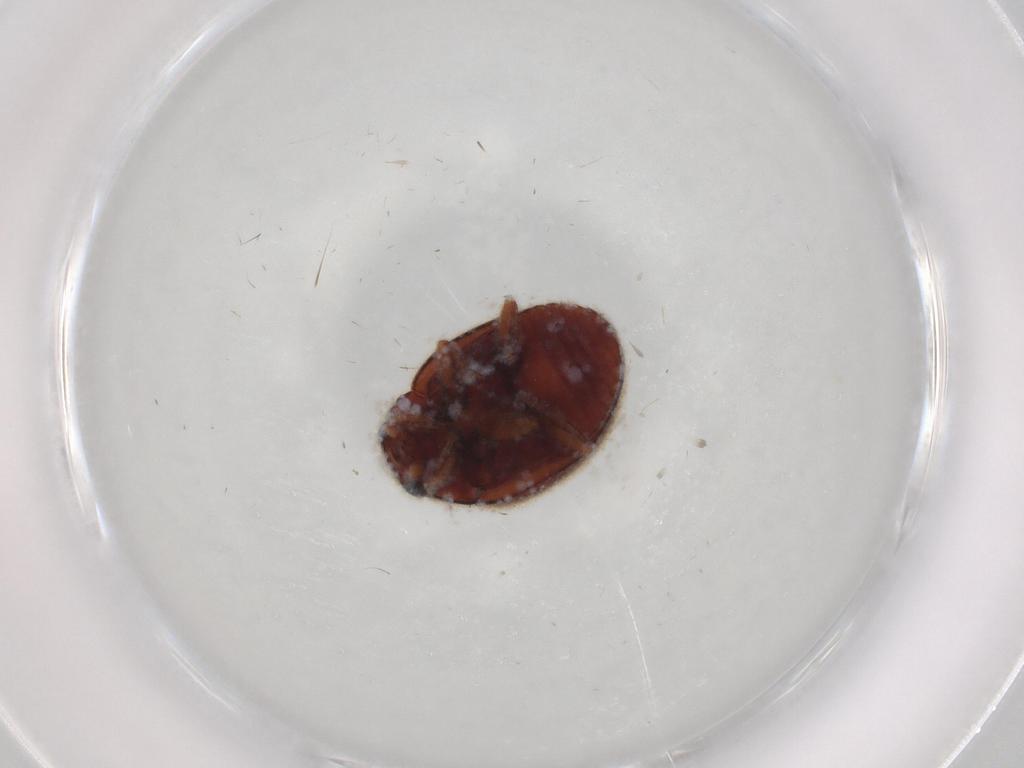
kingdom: Animalia
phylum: Arthropoda
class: Insecta
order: Coleoptera
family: Coccinellidae
